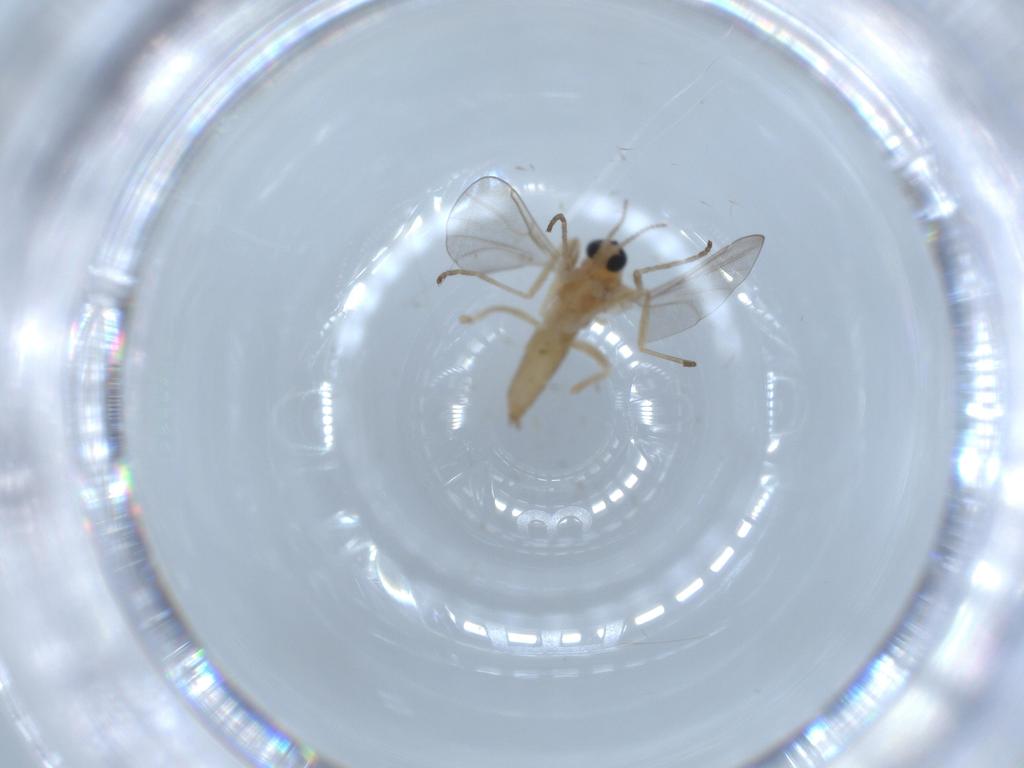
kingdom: Animalia
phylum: Arthropoda
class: Insecta
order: Diptera
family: Cecidomyiidae
